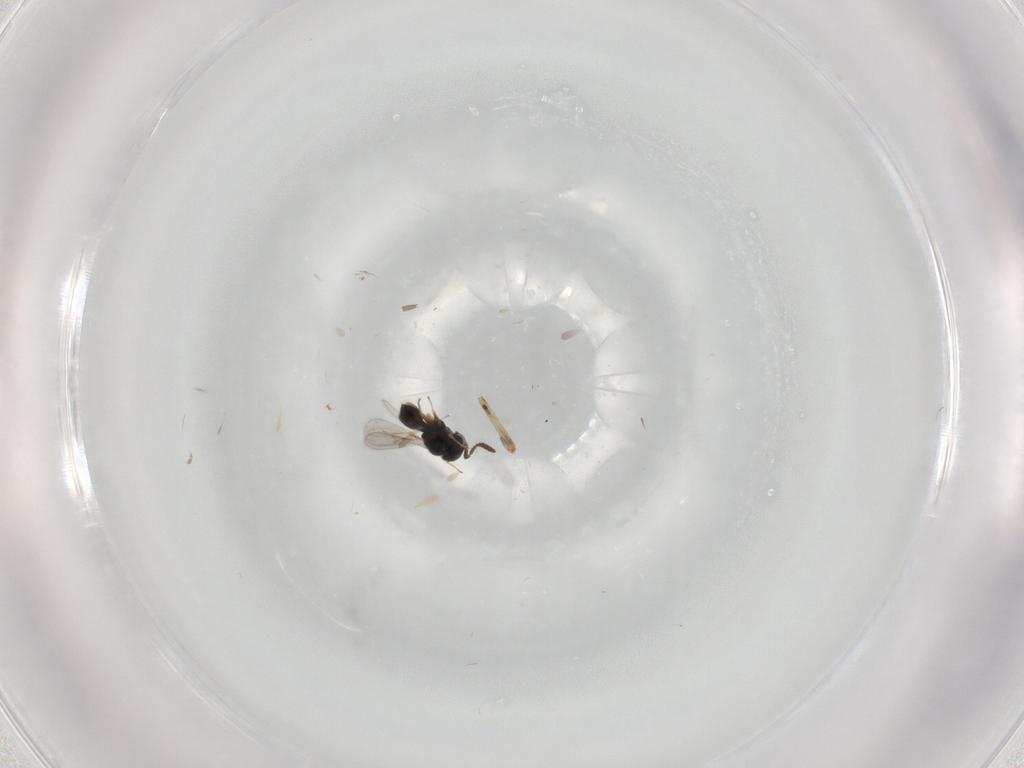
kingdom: Animalia
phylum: Arthropoda
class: Insecta
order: Hymenoptera
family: Scelionidae
